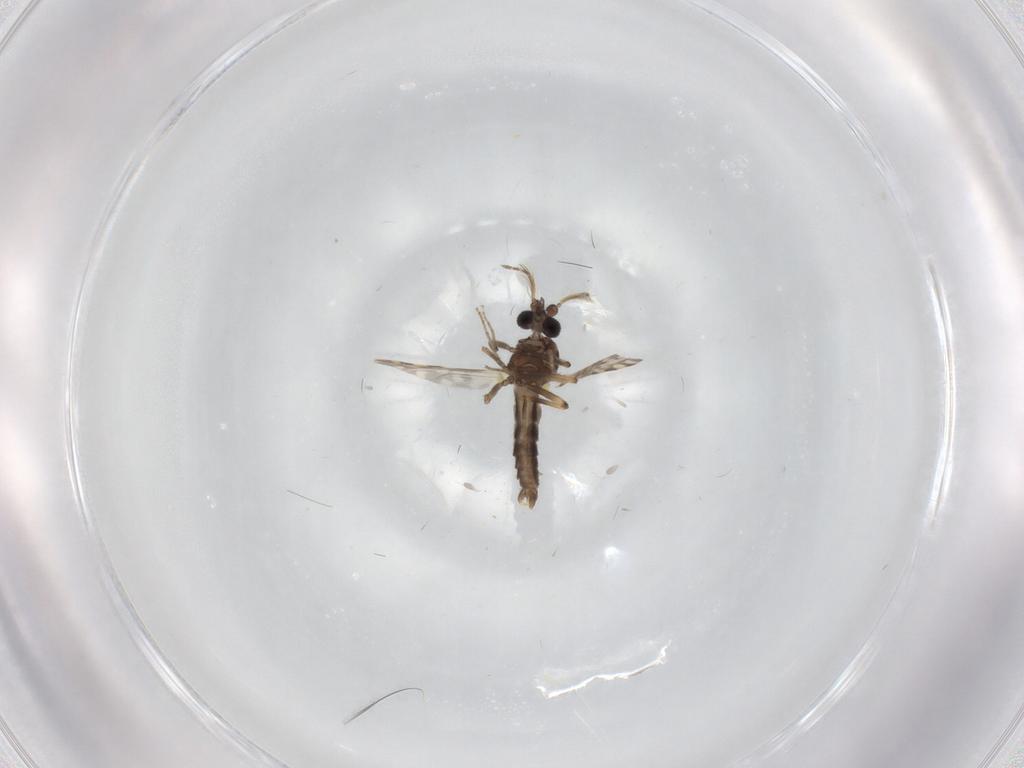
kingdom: Animalia
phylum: Arthropoda
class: Insecta
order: Diptera
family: Ceratopogonidae
